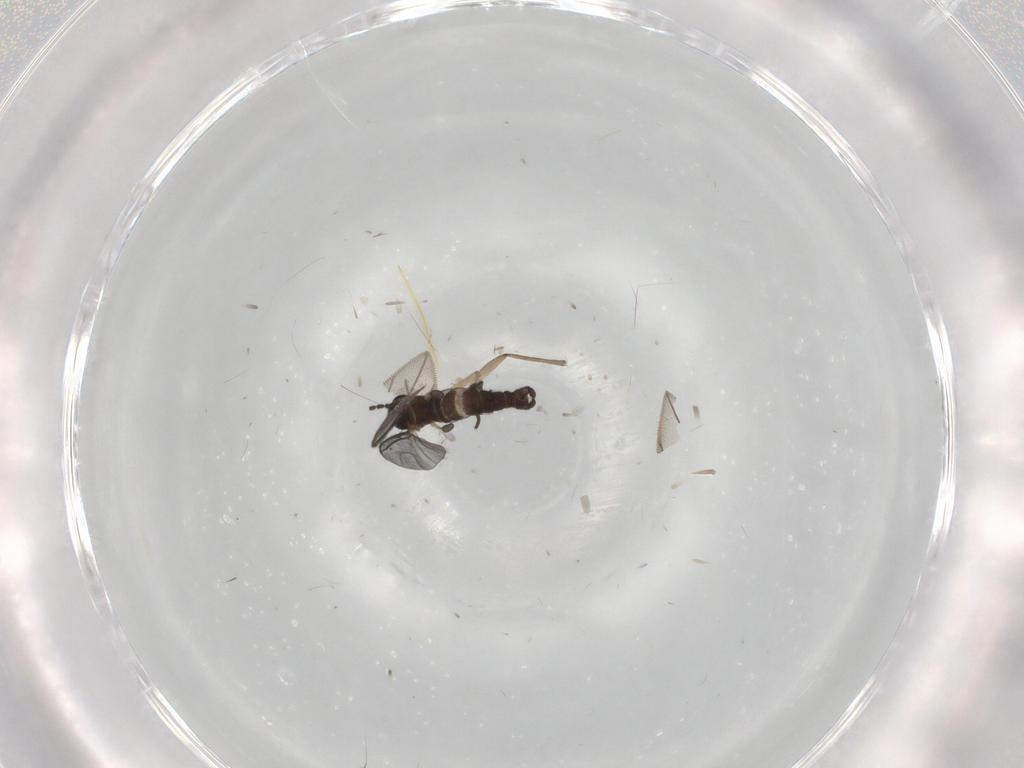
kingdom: Animalia
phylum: Arthropoda
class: Insecta
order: Diptera
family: Sciaridae
